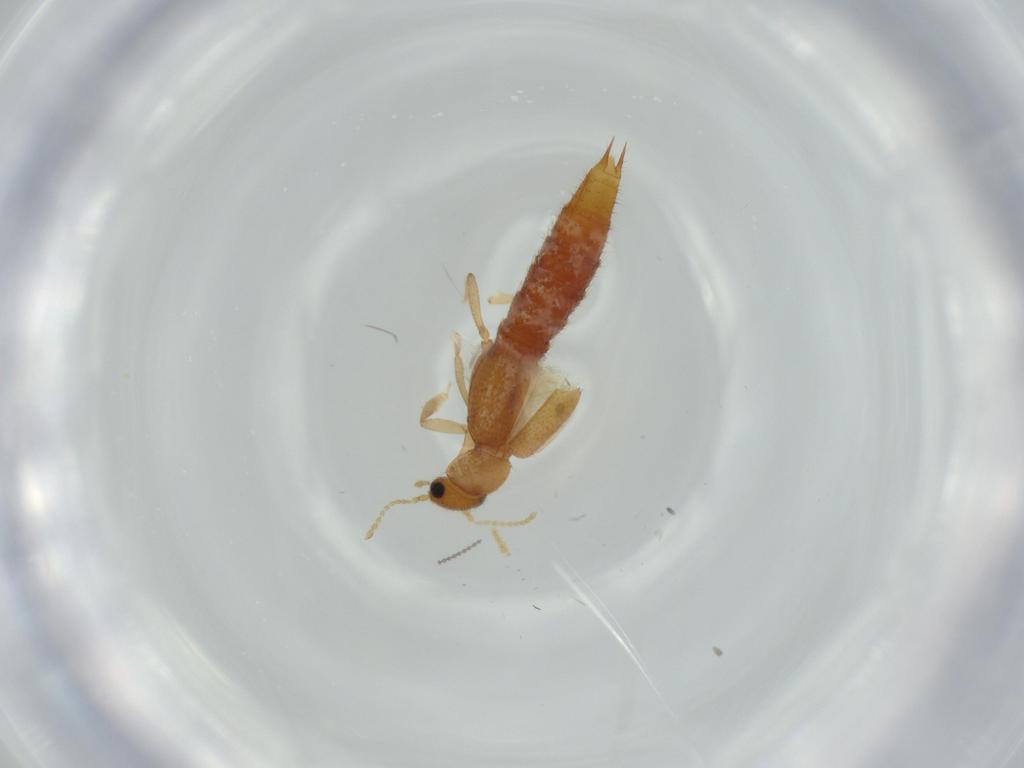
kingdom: Animalia
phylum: Arthropoda
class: Insecta
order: Coleoptera
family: Staphylinidae
